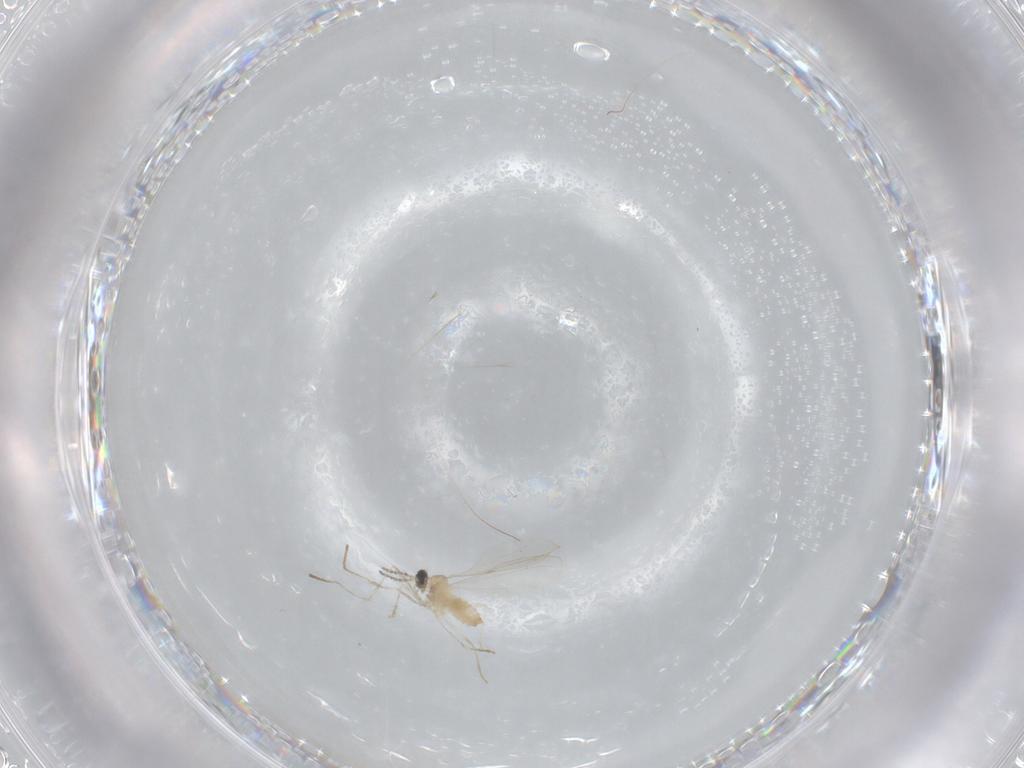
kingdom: Animalia
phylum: Arthropoda
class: Insecta
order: Diptera
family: Cecidomyiidae
